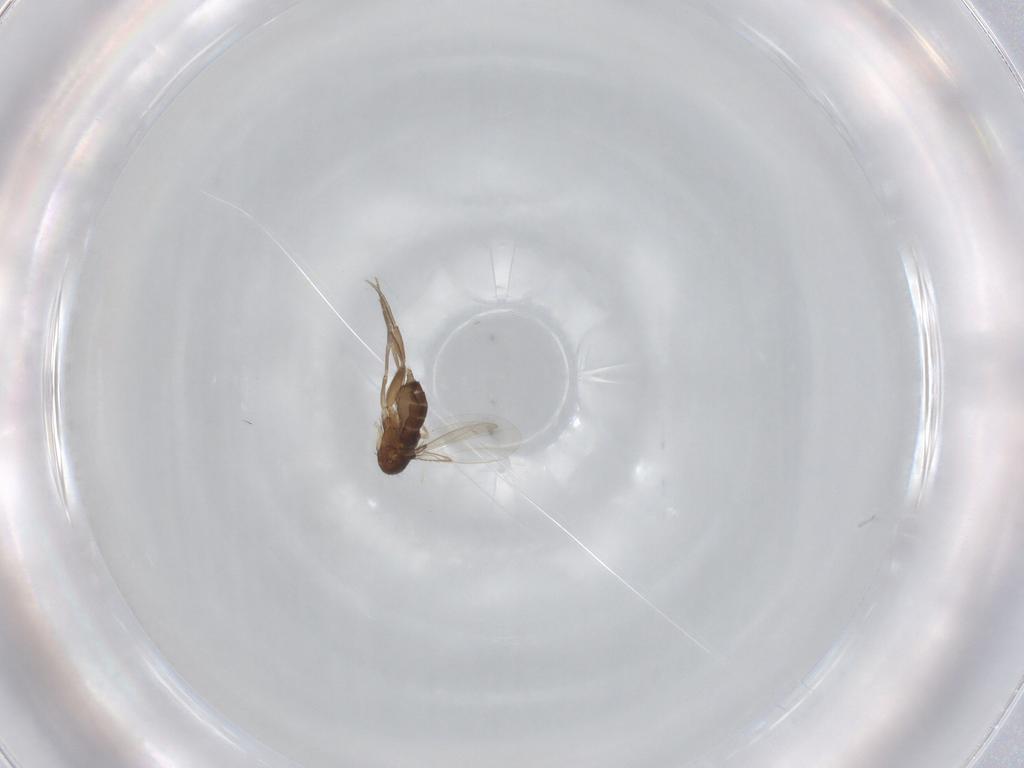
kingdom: Animalia
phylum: Arthropoda
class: Insecta
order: Diptera
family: Phoridae
